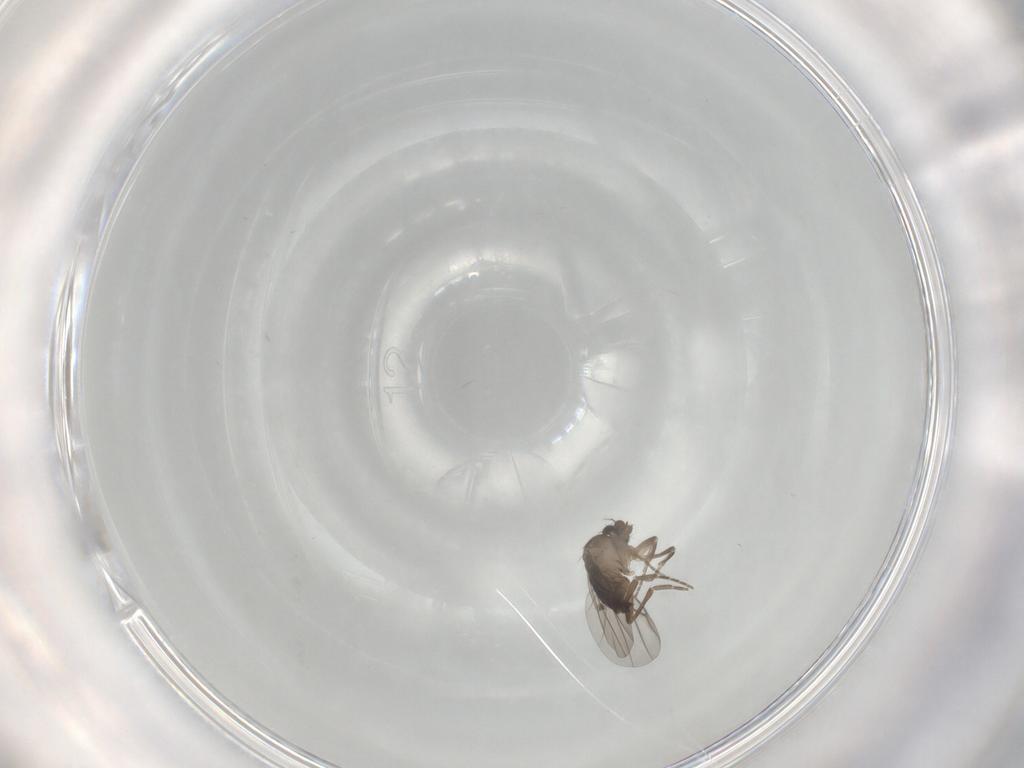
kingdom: Animalia
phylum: Arthropoda
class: Insecta
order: Diptera
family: Phoridae
